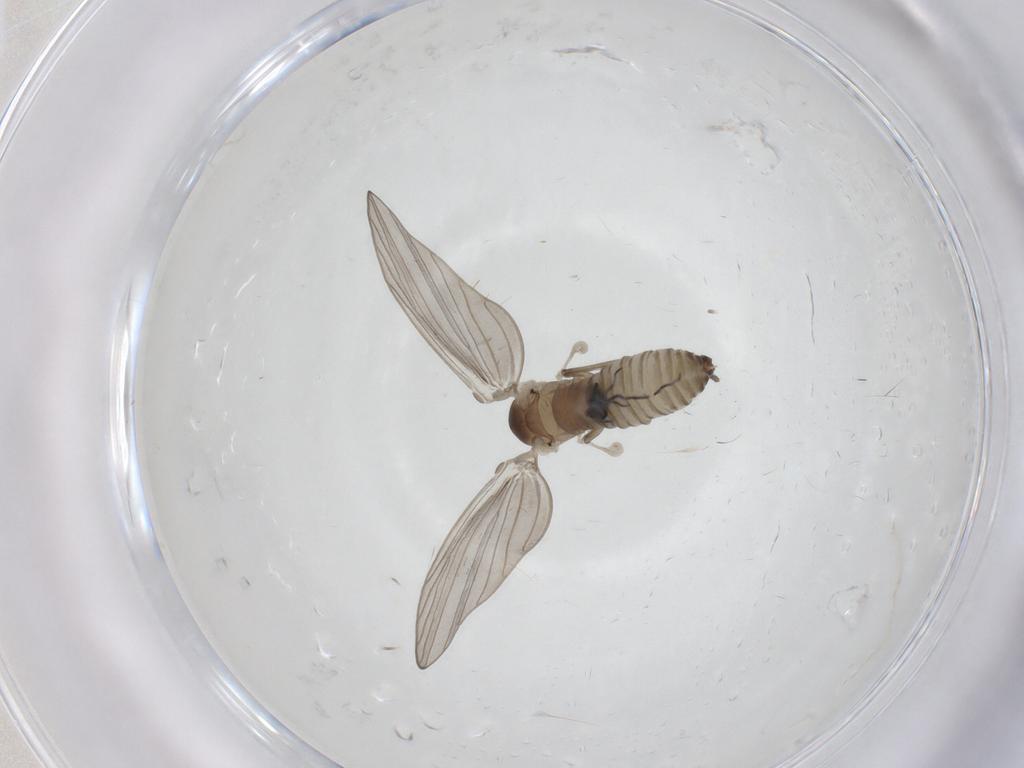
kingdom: Animalia
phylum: Arthropoda
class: Insecta
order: Diptera
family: Psychodidae
